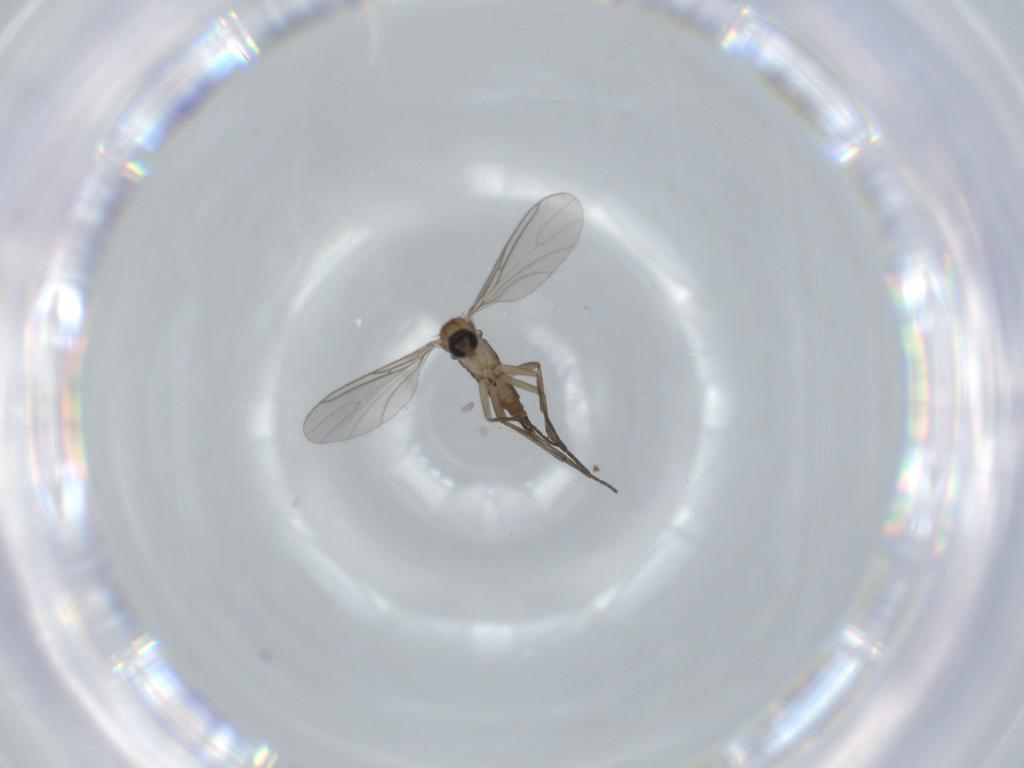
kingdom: Animalia
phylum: Arthropoda
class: Insecta
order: Diptera
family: Sciaridae
